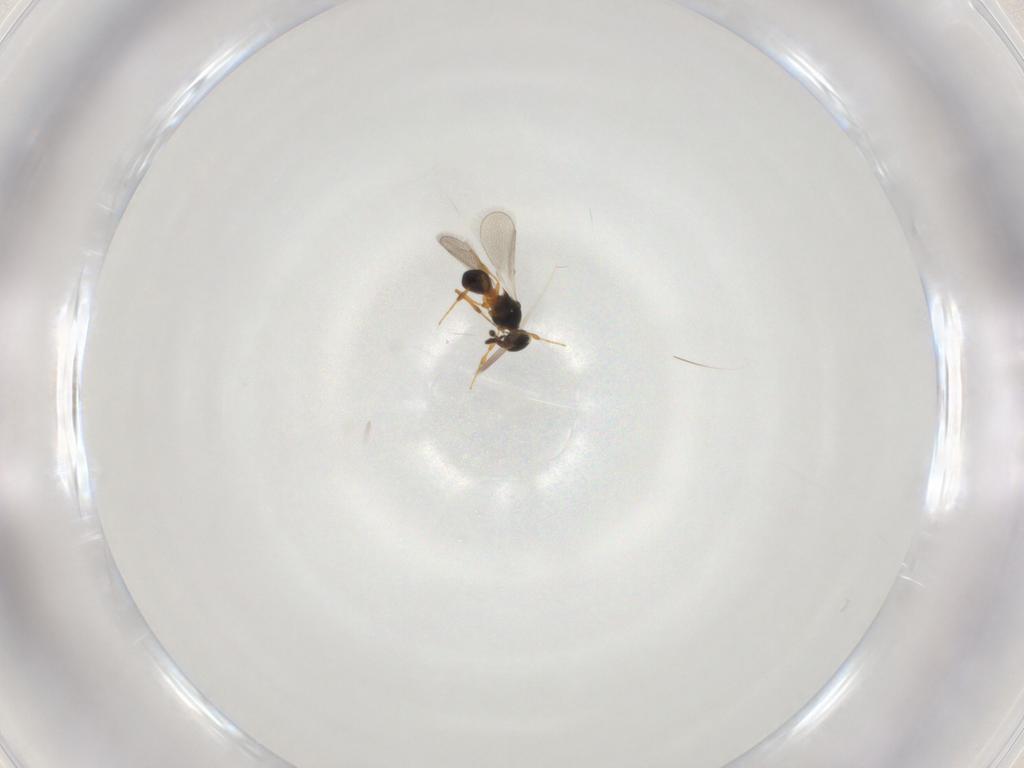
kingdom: Animalia
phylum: Arthropoda
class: Insecta
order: Hymenoptera
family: Platygastridae
